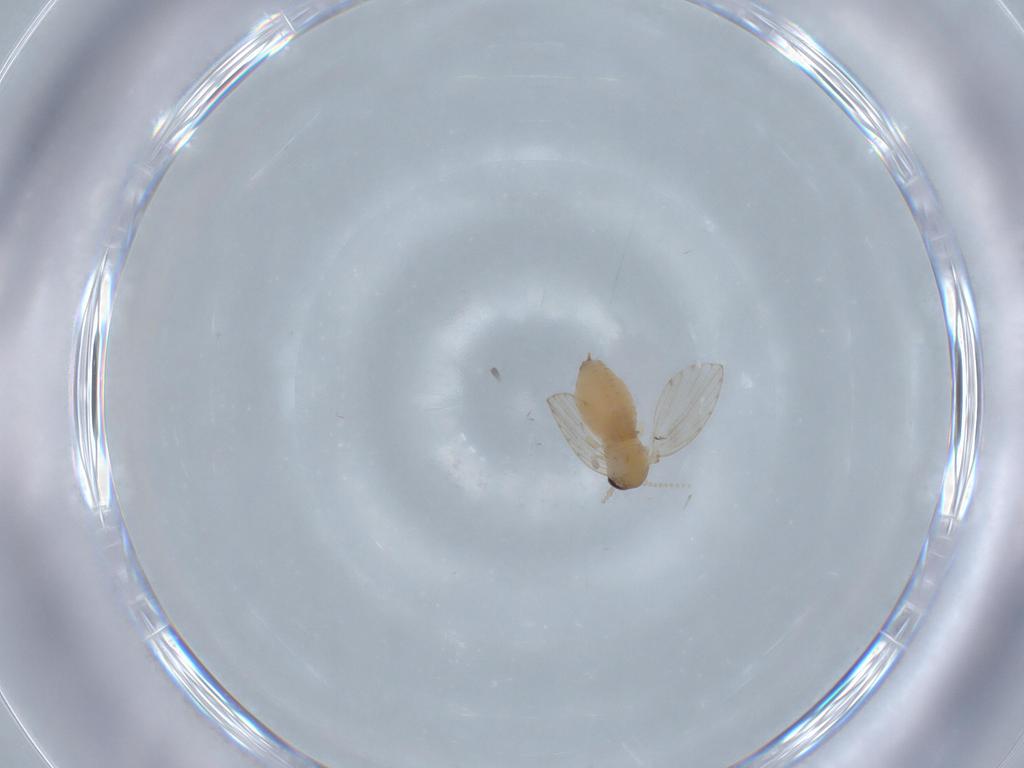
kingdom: Animalia
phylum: Arthropoda
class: Insecta
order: Diptera
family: Psychodidae
